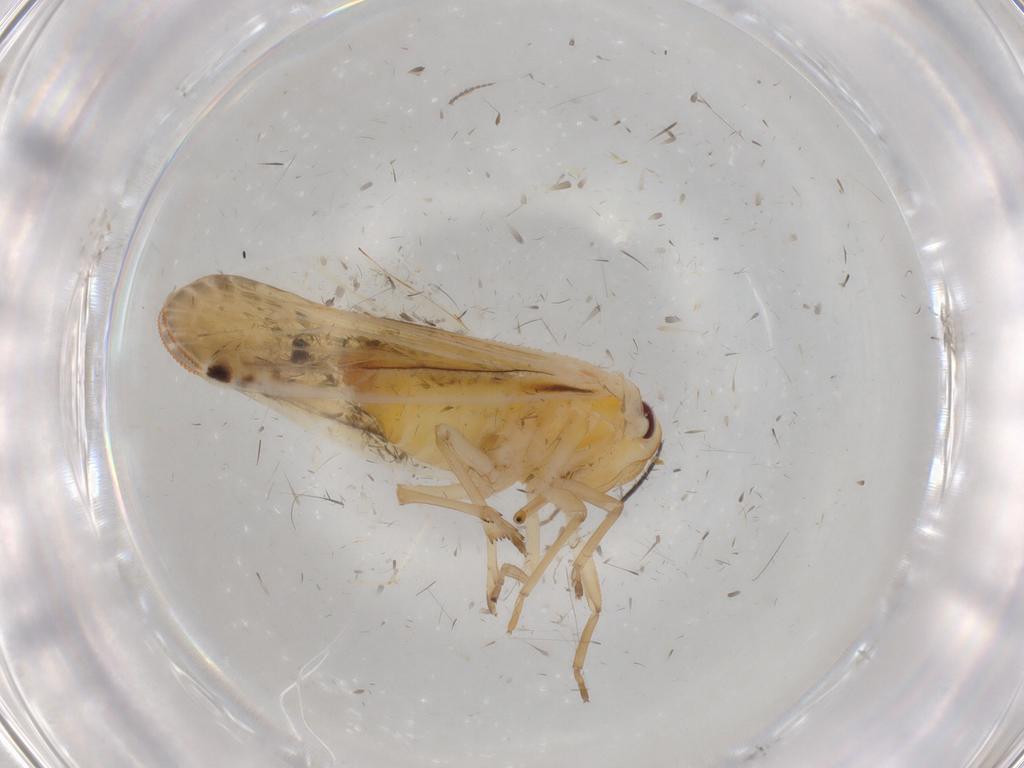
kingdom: Animalia
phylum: Arthropoda
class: Insecta
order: Hemiptera
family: Derbidae
